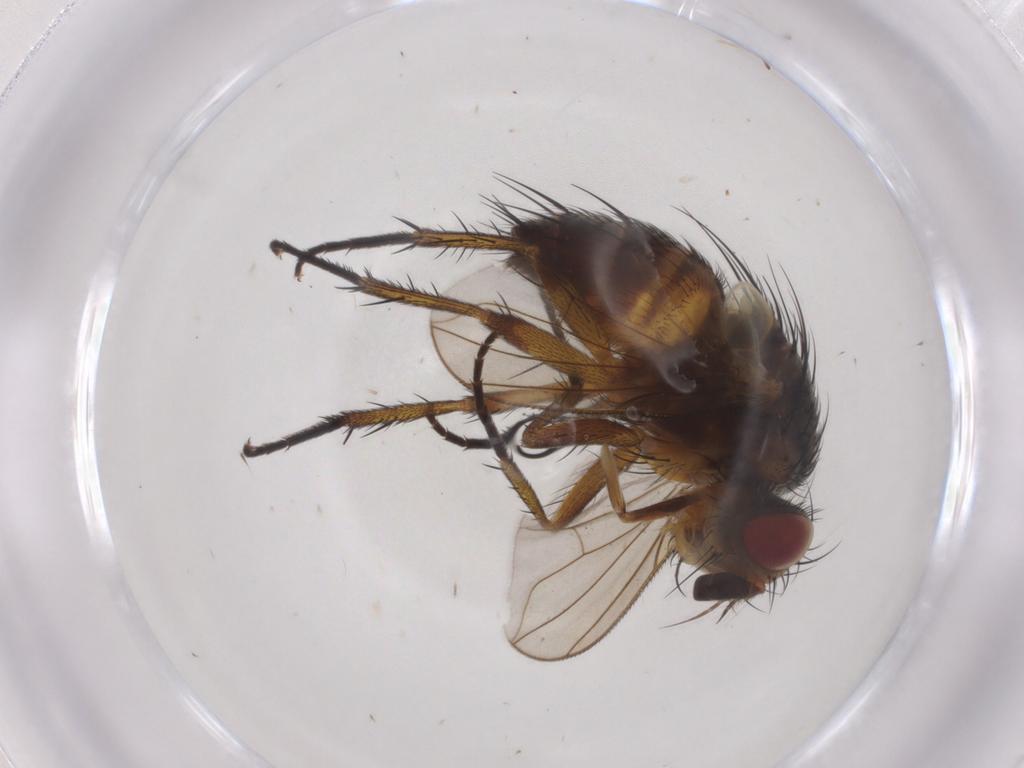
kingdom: Animalia
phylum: Arthropoda
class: Insecta
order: Diptera
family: Tachinidae
